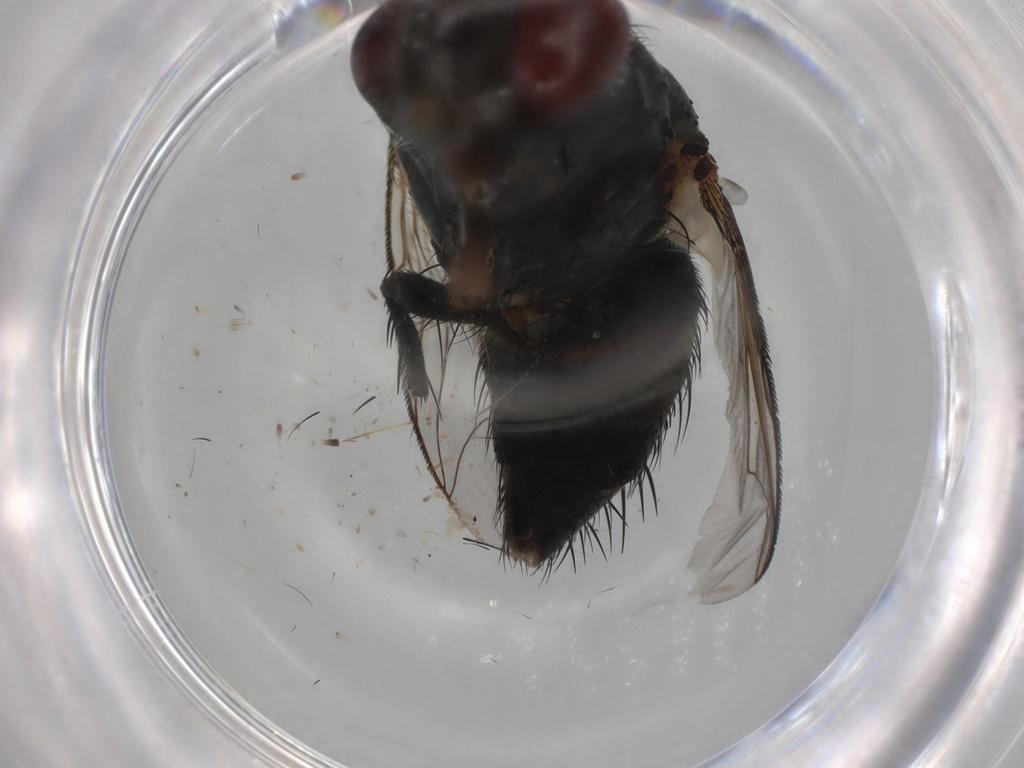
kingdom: Animalia
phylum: Arthropoda
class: Insecta
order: Diptera
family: Tachinidae
